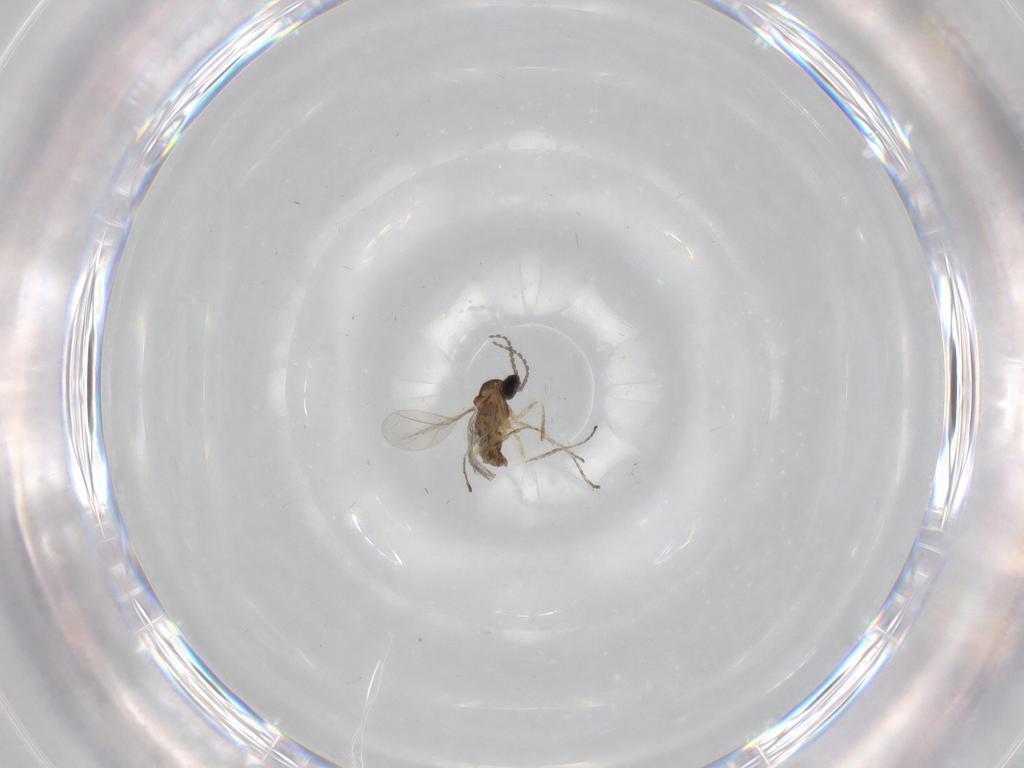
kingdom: Animalia
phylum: Arthropoda
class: Insecta
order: Diptera
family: Cecidomyiidae
